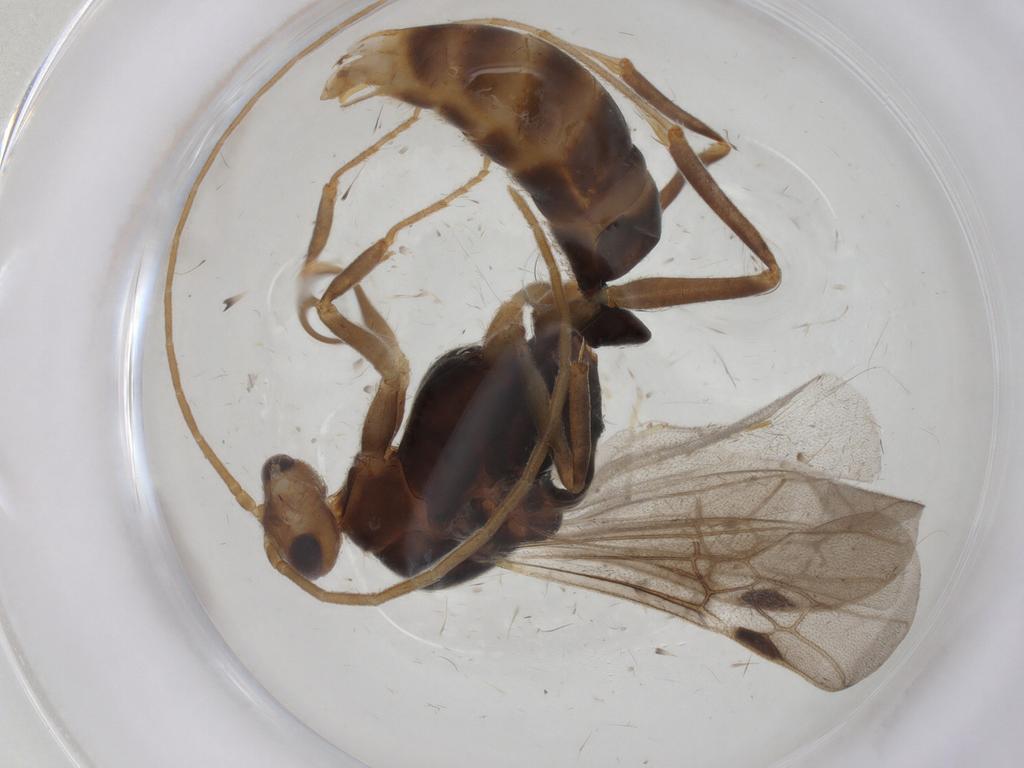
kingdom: Animalia
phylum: Arthropoda
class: Insecta
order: Hymenoptera
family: Formicidae
